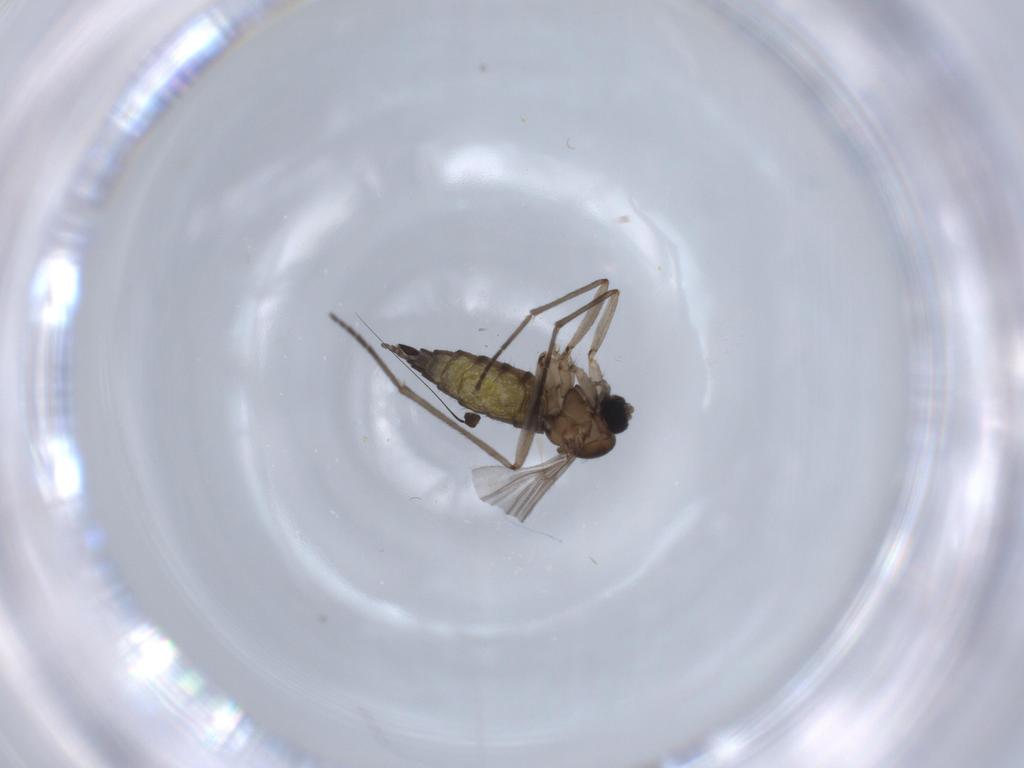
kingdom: Animalia
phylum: Arthropoda
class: Insecta
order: Diptera
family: Sciaridae
